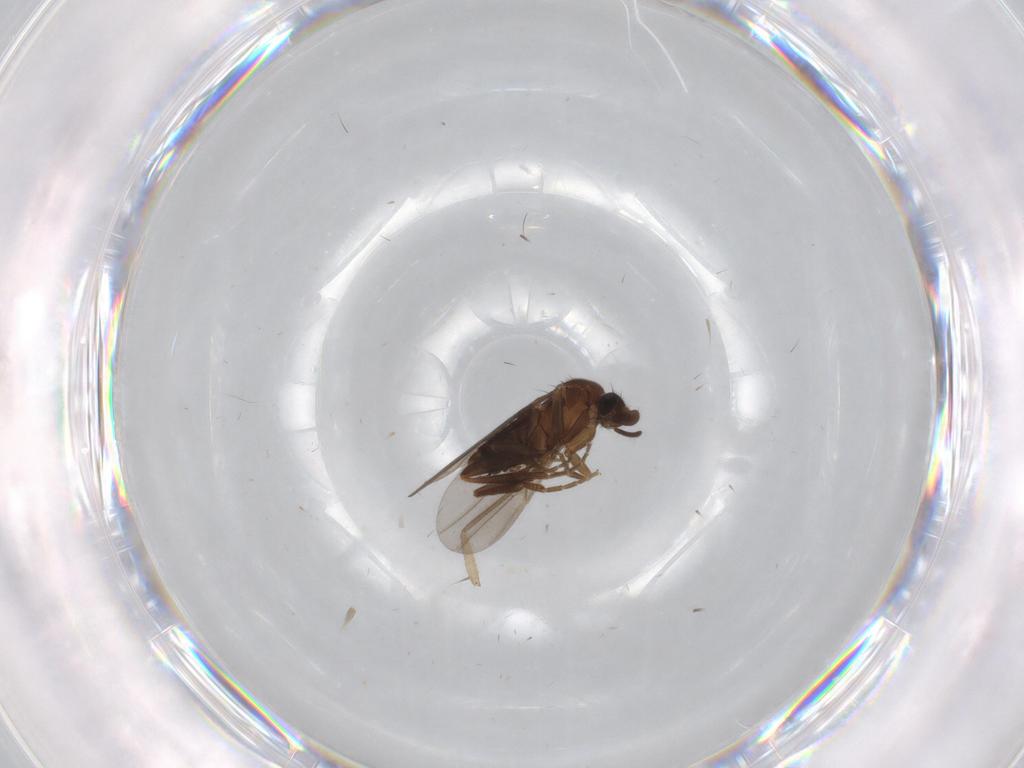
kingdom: Animalia
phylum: Arthropoda
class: Insecta
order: Diptera
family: Phoridae
